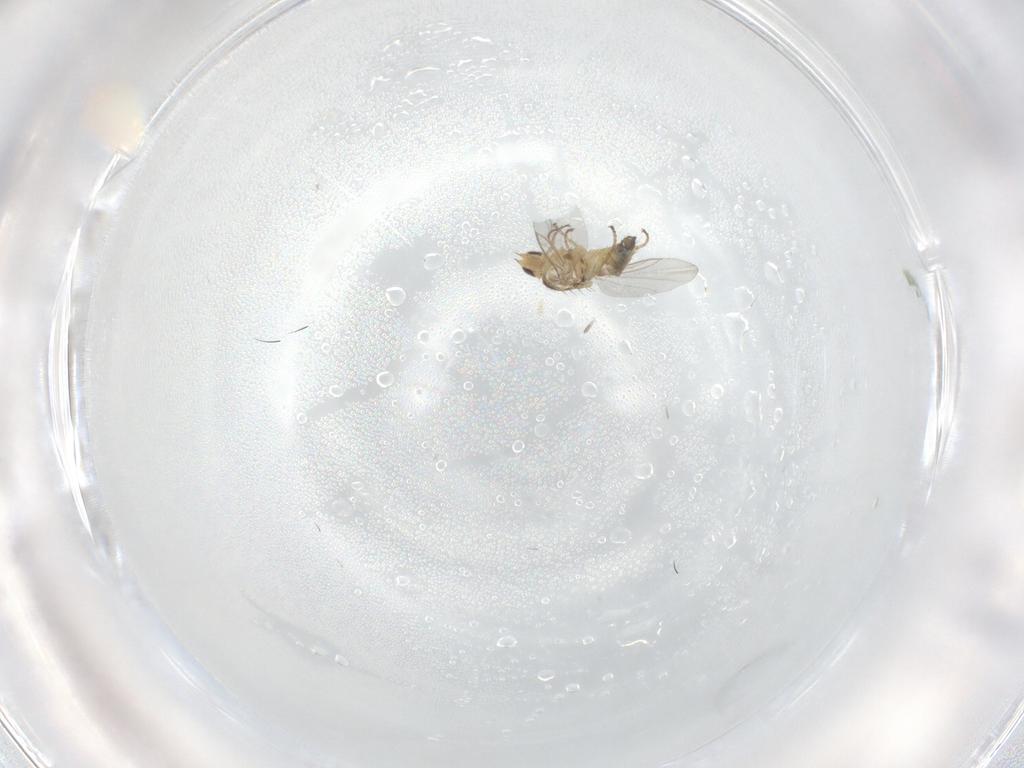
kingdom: Animalia
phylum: Arthropoda
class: Insecta
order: Diptera
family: Agromyzidae
